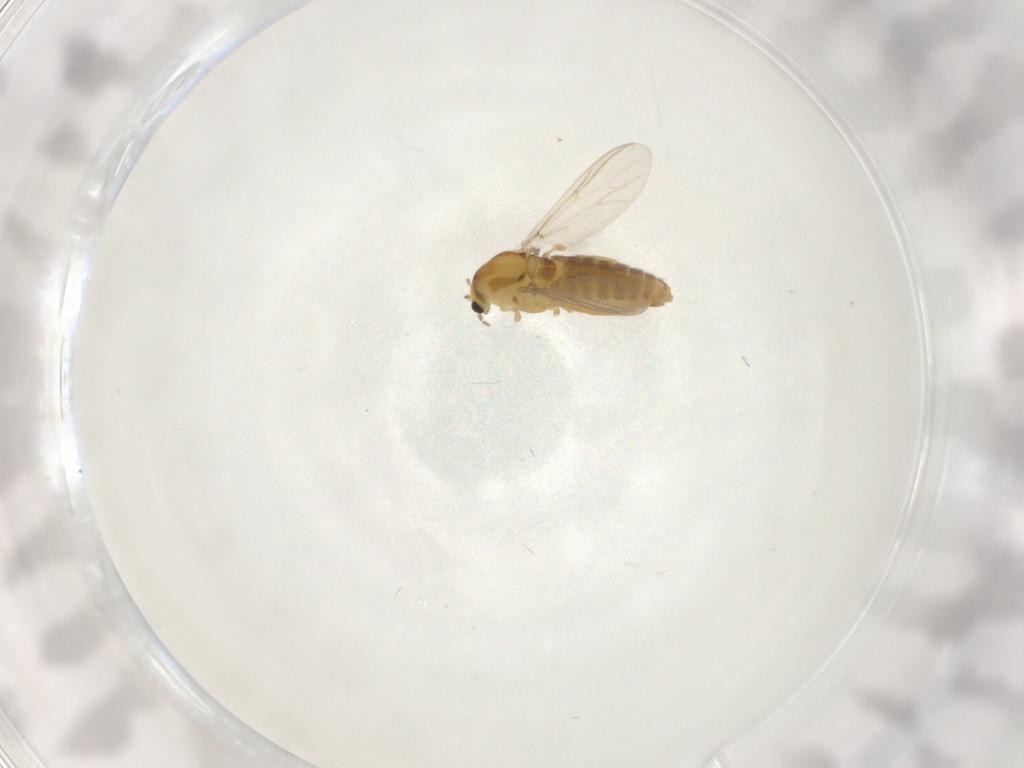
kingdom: Animalia
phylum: Arthropoda
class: Insecta
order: Diptera
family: Chironomidae
